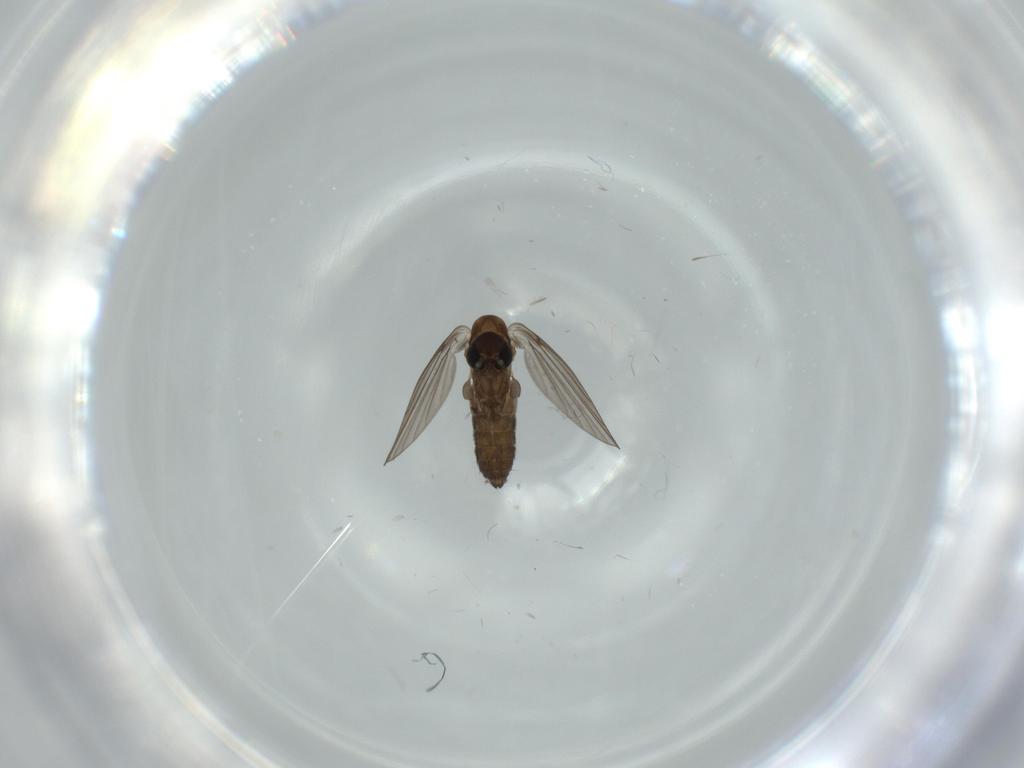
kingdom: Animalia
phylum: Arthropoda
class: Insecta
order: Diptera
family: Psychodidae
